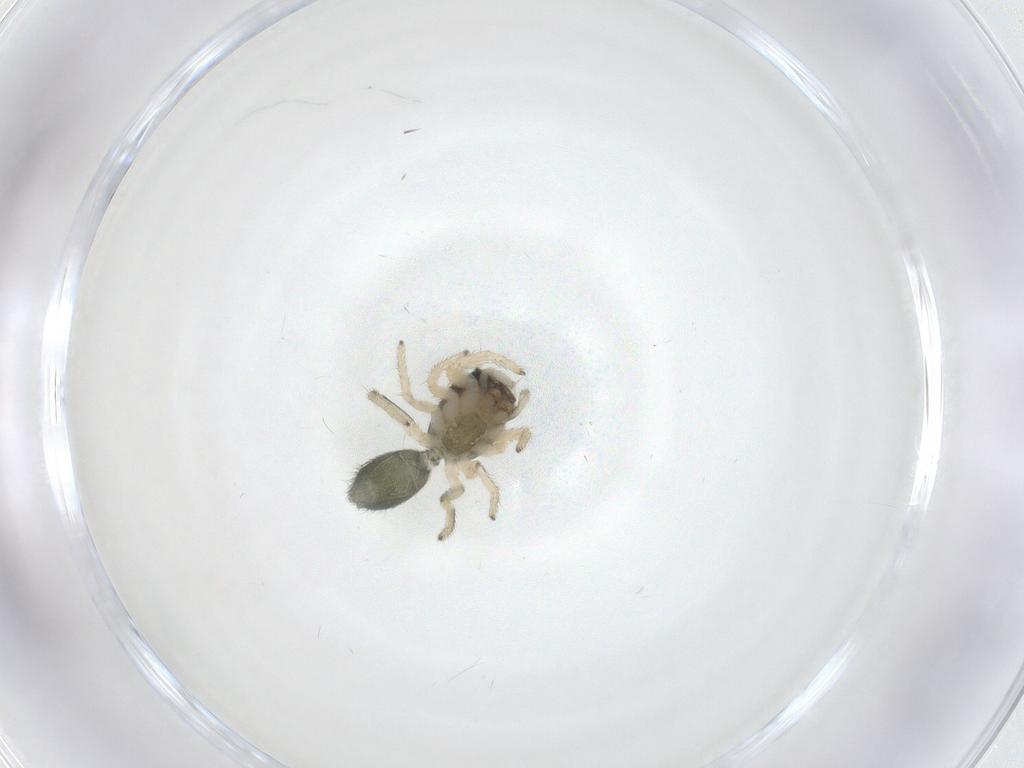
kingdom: Animalia
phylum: Arthropoda
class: Arachnida
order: Araneae
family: Salticidae
